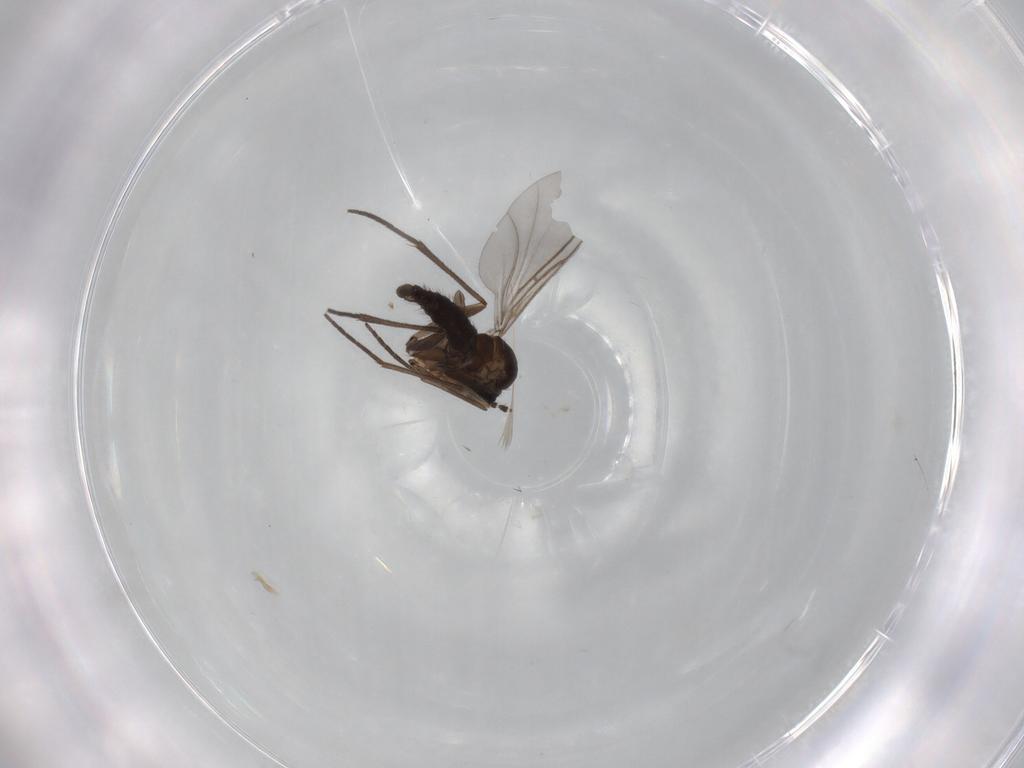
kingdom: Animalia
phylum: Arthropoda
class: Insecta
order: Diptera
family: Sciaridae
